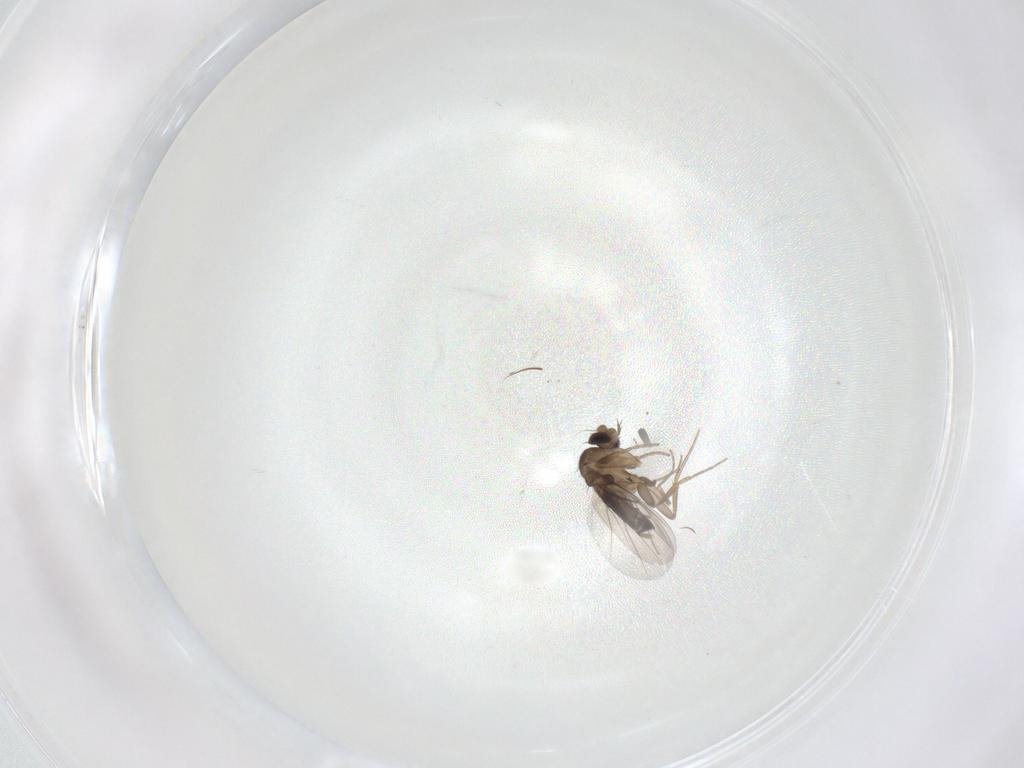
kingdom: Animalia
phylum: Arthropoda
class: Insecta
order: Diptera
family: Phoridae
